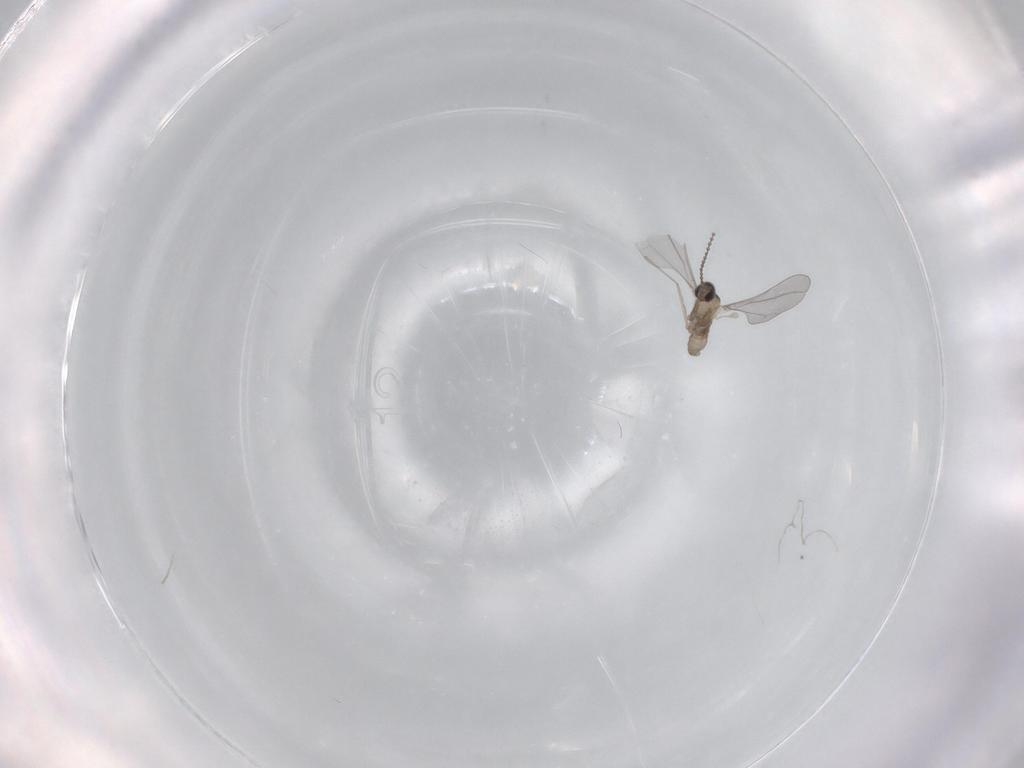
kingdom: Animalia
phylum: Arthropoda
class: Insecta
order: Diptera
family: Cecidomyiidae
